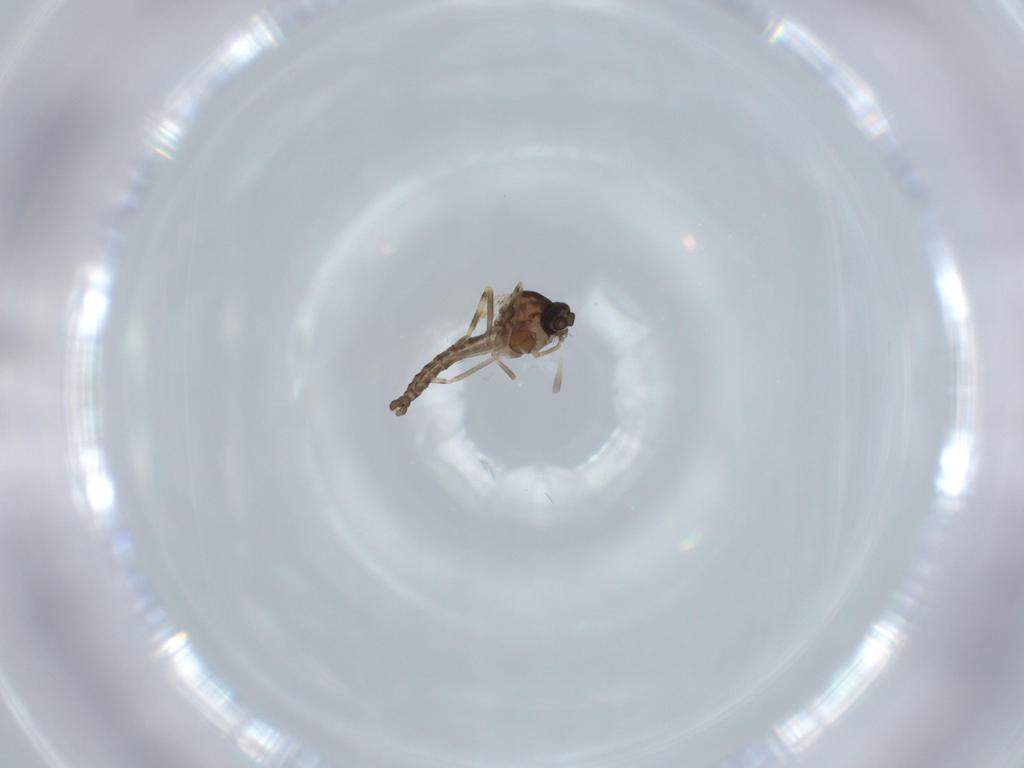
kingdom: Animalia
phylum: Arthropoda
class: Insecta
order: Diptera
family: Ceratopogonidae
